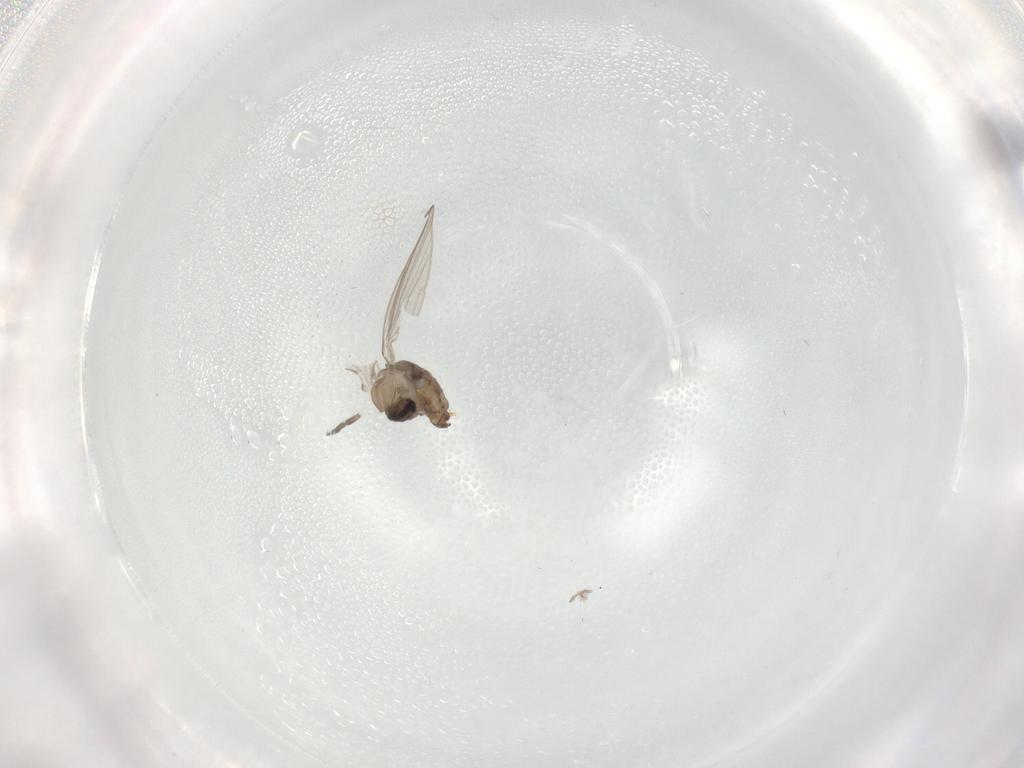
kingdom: Animalia
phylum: Arthropoda
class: Insecta
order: Diptera
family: Psychodidae
